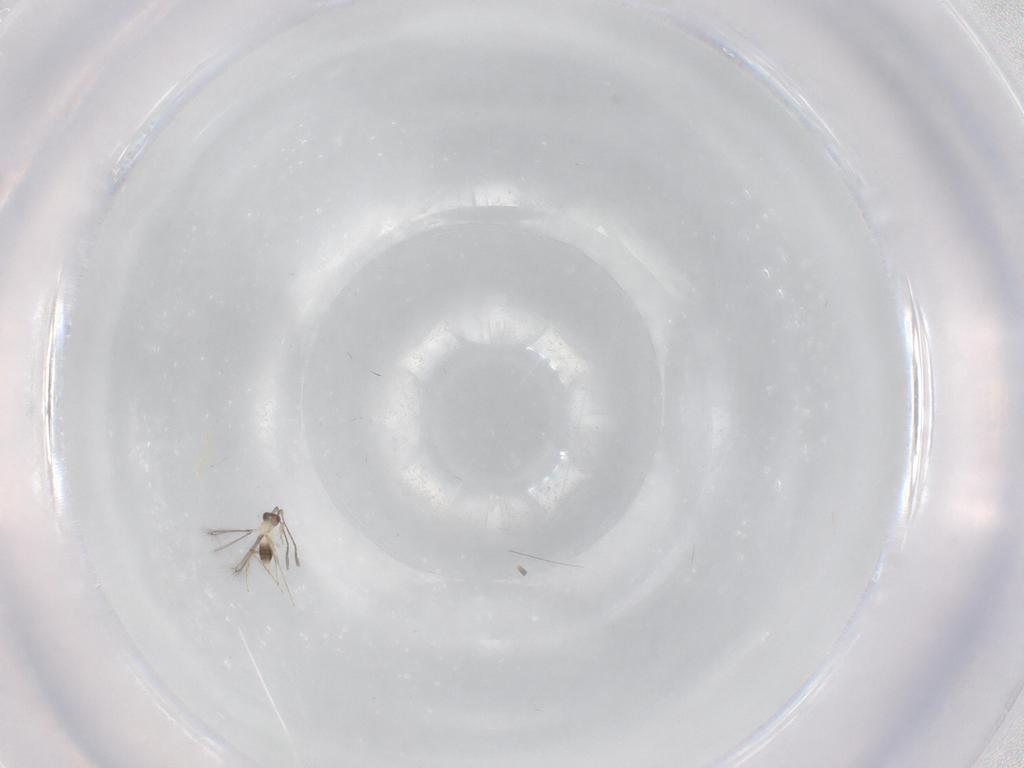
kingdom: Animalia
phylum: Arthropoda
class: Insecta
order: Hymenoptera
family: Mymaridae
